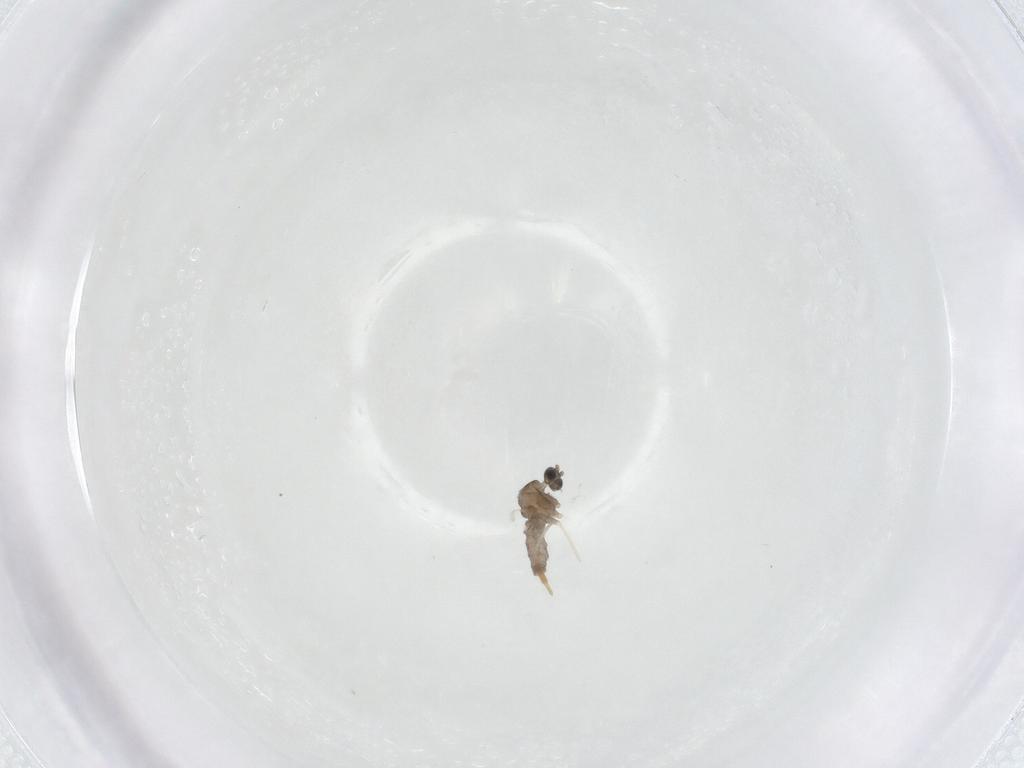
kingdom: Animalia
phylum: Arthropoda
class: Insecta
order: Diptera
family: Cecidomyiidae
